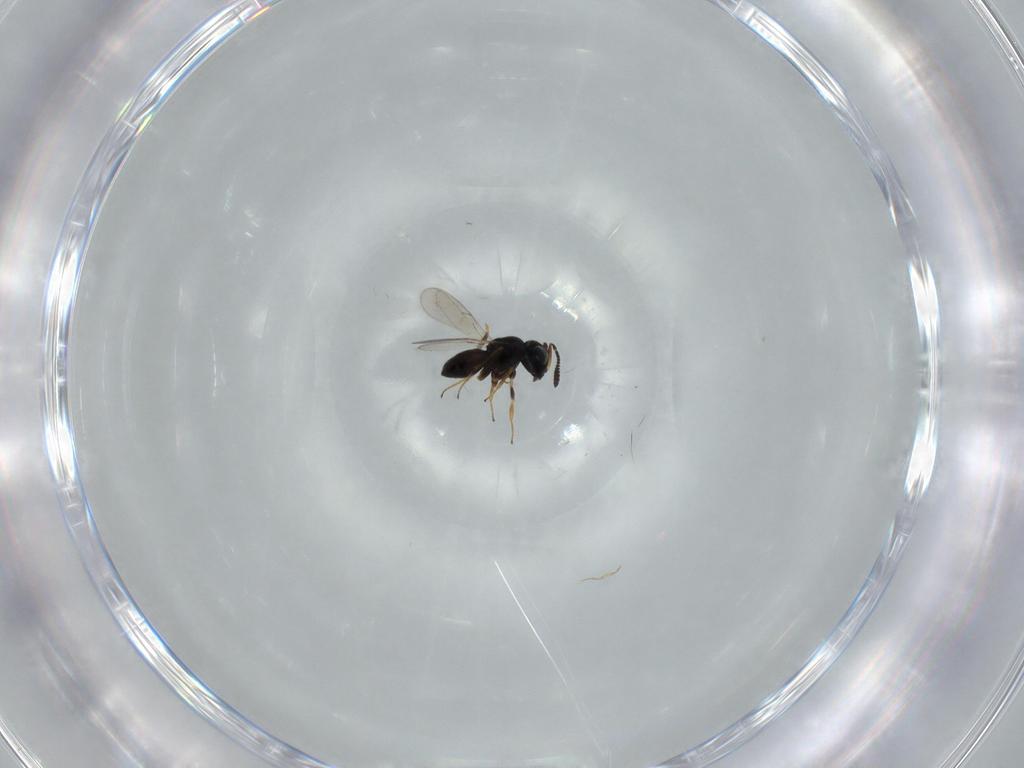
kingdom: Animalia
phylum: Arthropoda
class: Insecta
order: Hymenoptera
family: Scelionidae
